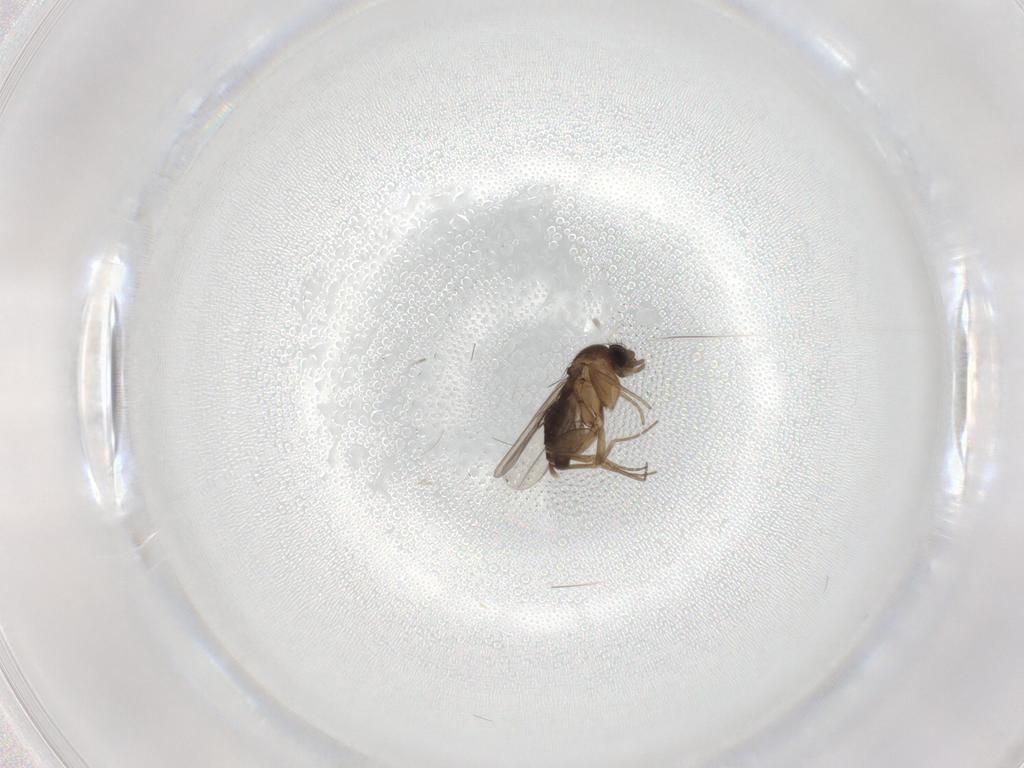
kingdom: Animalia
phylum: Arthropoda
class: Insecta
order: Diptera
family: Phoridae
